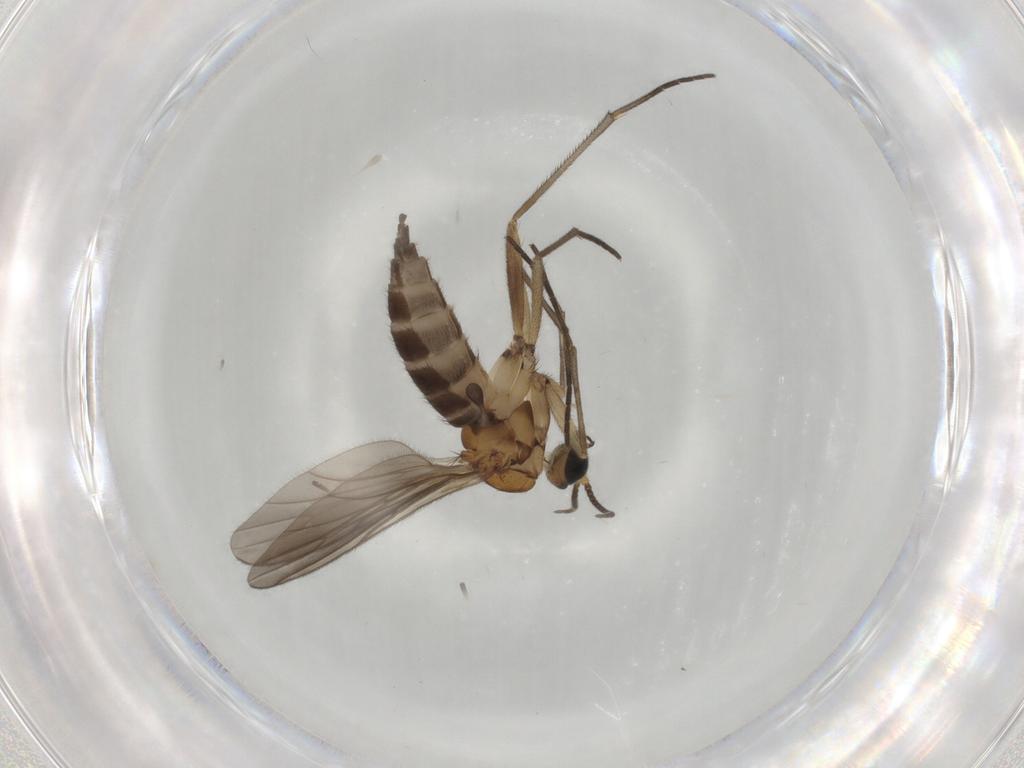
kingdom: Animalia
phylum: Arthropoda
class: Insecta
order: Diptera
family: Sciaridae
